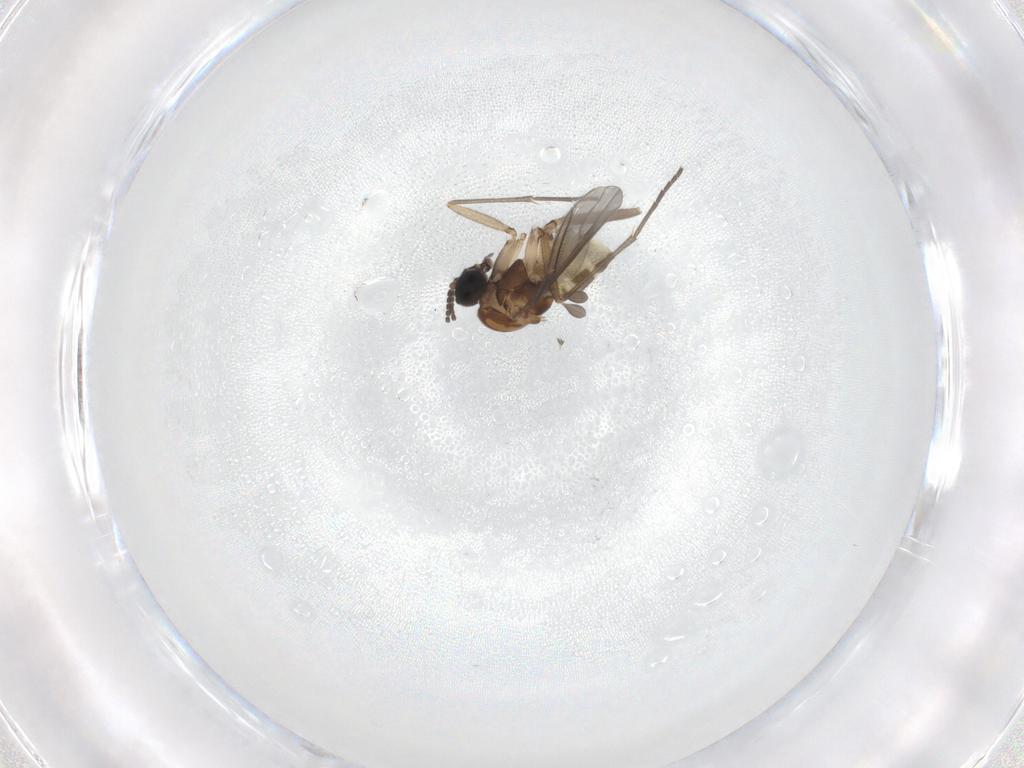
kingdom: Animalia
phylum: Arthropoda
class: Insecta
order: Diptera
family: Sciaridae
